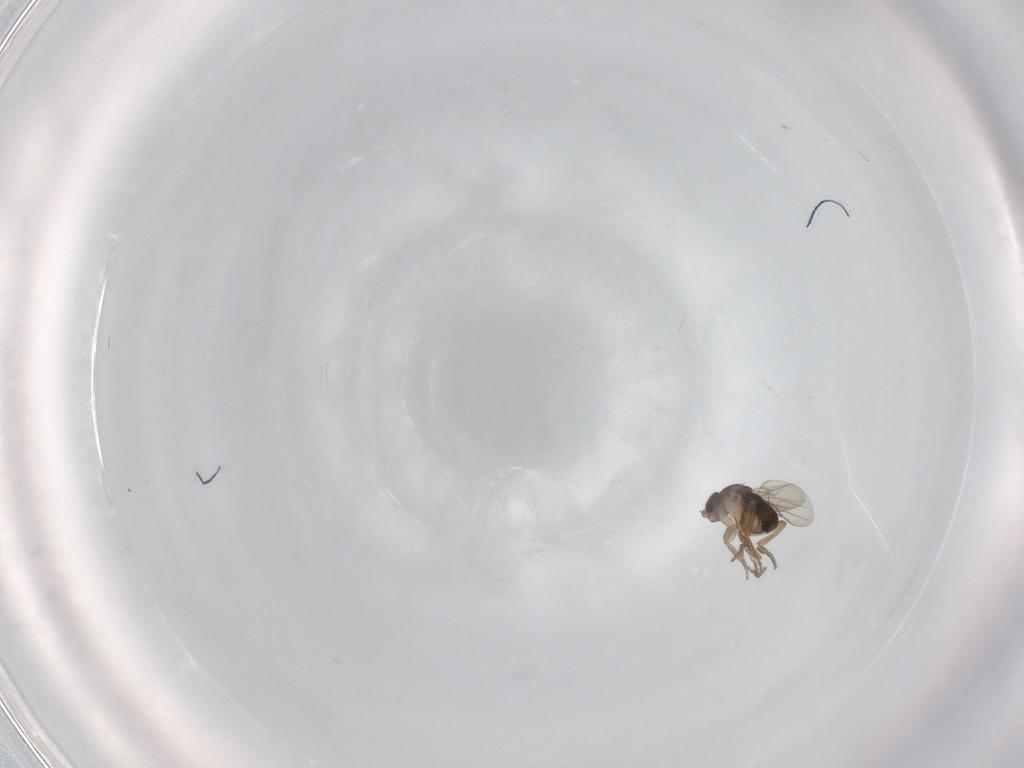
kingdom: Animalia
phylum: Arthropoda
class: Insecta
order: Diptera
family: Phoridae
